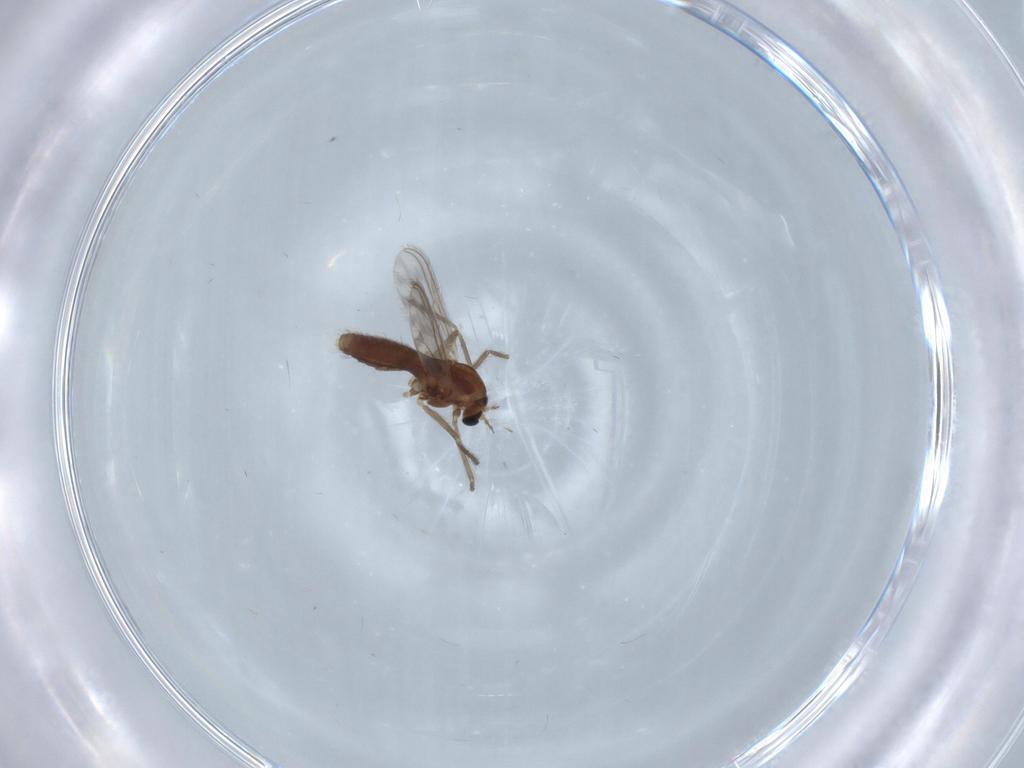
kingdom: Animalia
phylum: Arthropoda
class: Insecta
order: Diptera
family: Chironomidae
